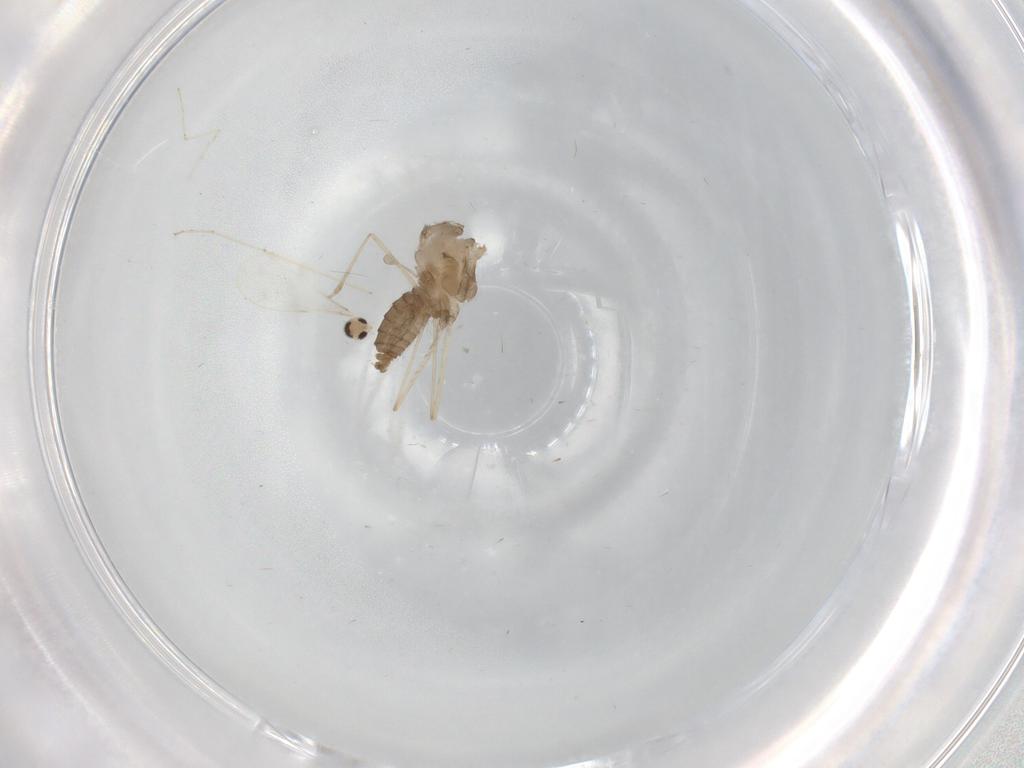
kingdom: Animalia
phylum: Arthropoda
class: Insecta
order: Diptera
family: Cecidomyiidae
